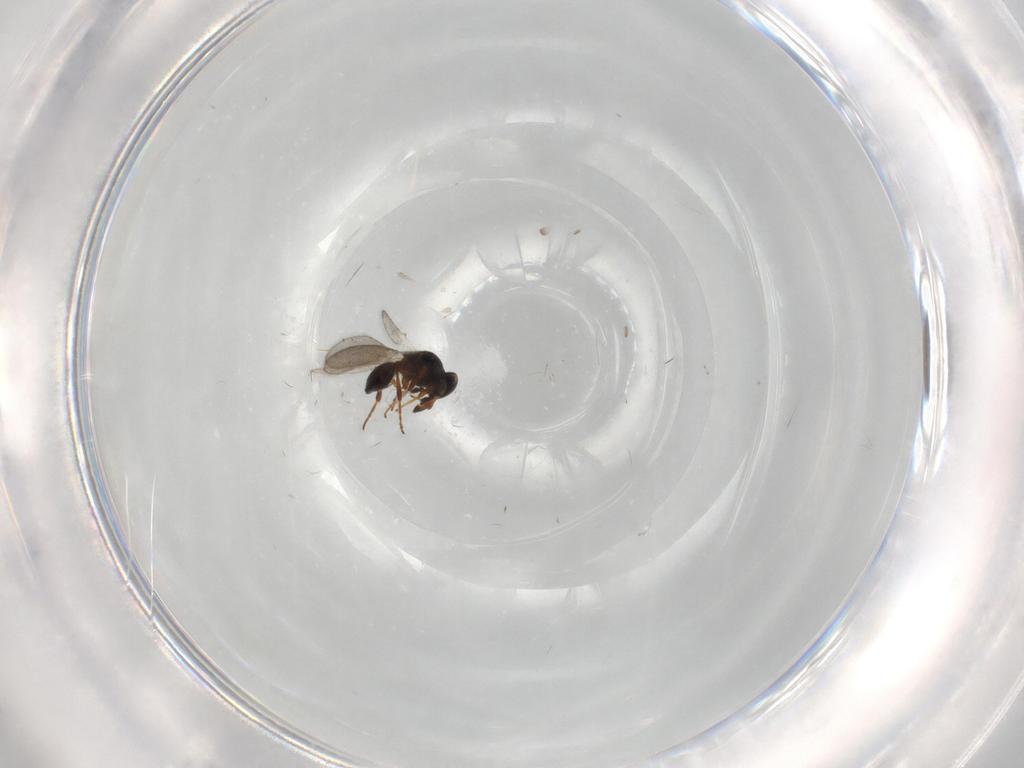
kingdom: Animalia
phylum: Arthropoda
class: Insecta
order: Hymenoptera
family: Platygastridae
